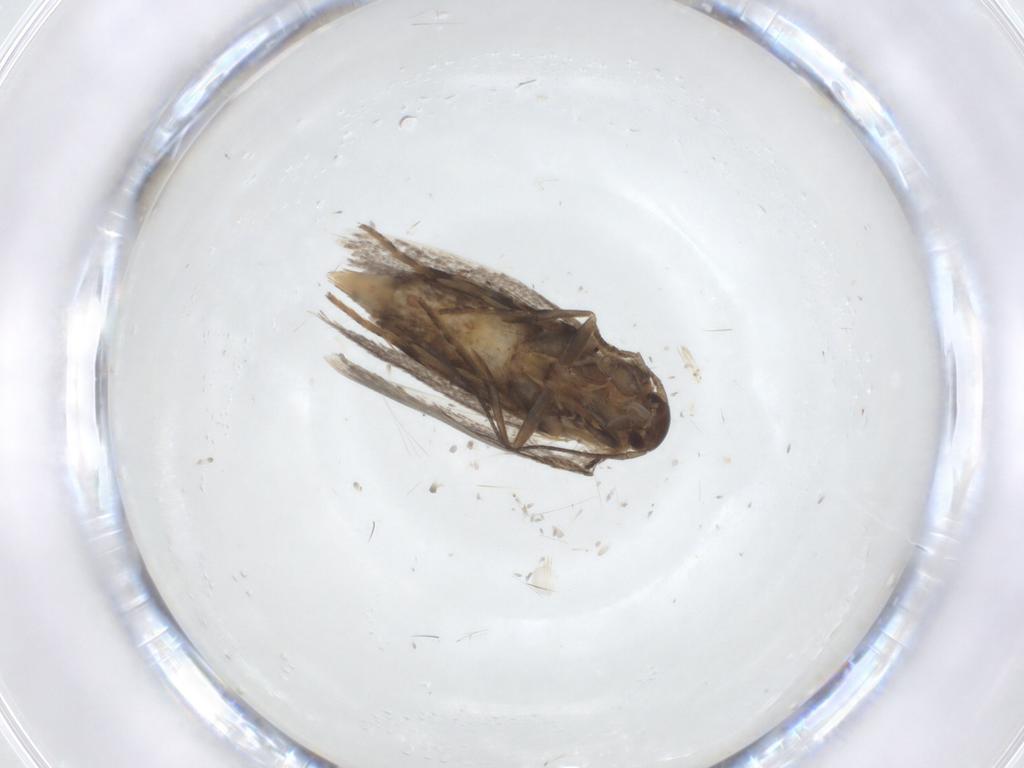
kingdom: Animalia
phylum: Arthropoda
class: Insecta
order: Lepidoptera
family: Elachistidae
